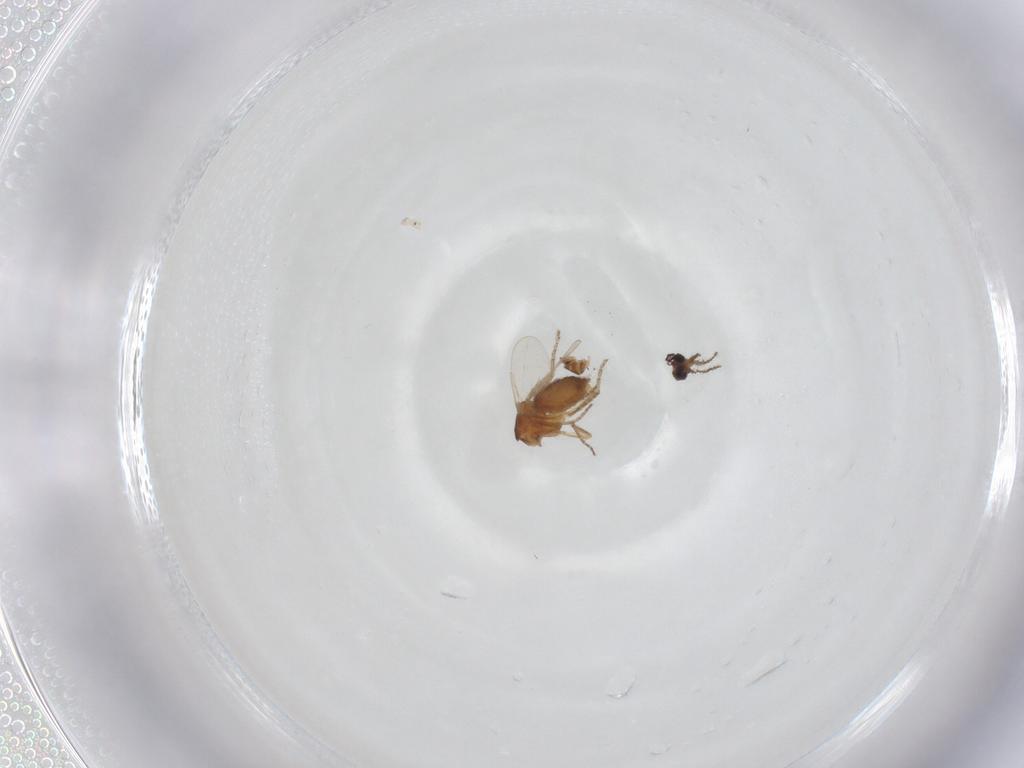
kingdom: Animalia
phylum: Arthropoda
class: Insecta
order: Diptera
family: Ceratopogonidae
